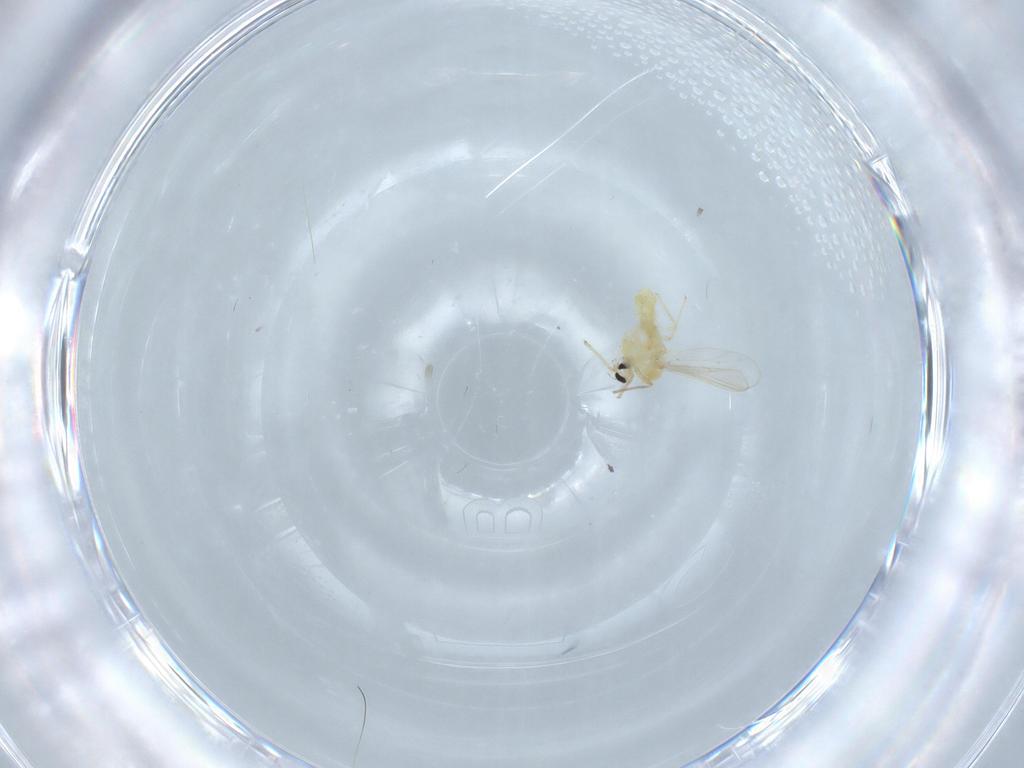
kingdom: Animalia
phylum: Arthropoda
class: Insecta
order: Diptera
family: Chironomidae
